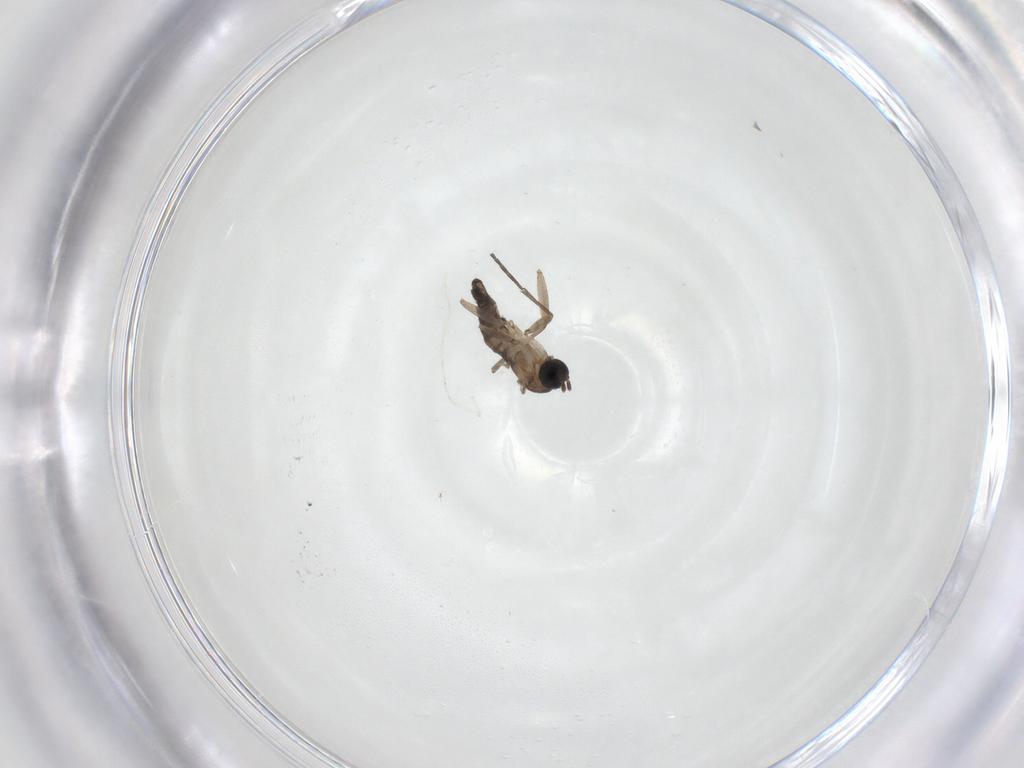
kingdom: Animalia
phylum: Arthropoda
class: Insecta
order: Diptera
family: Sciaridae
